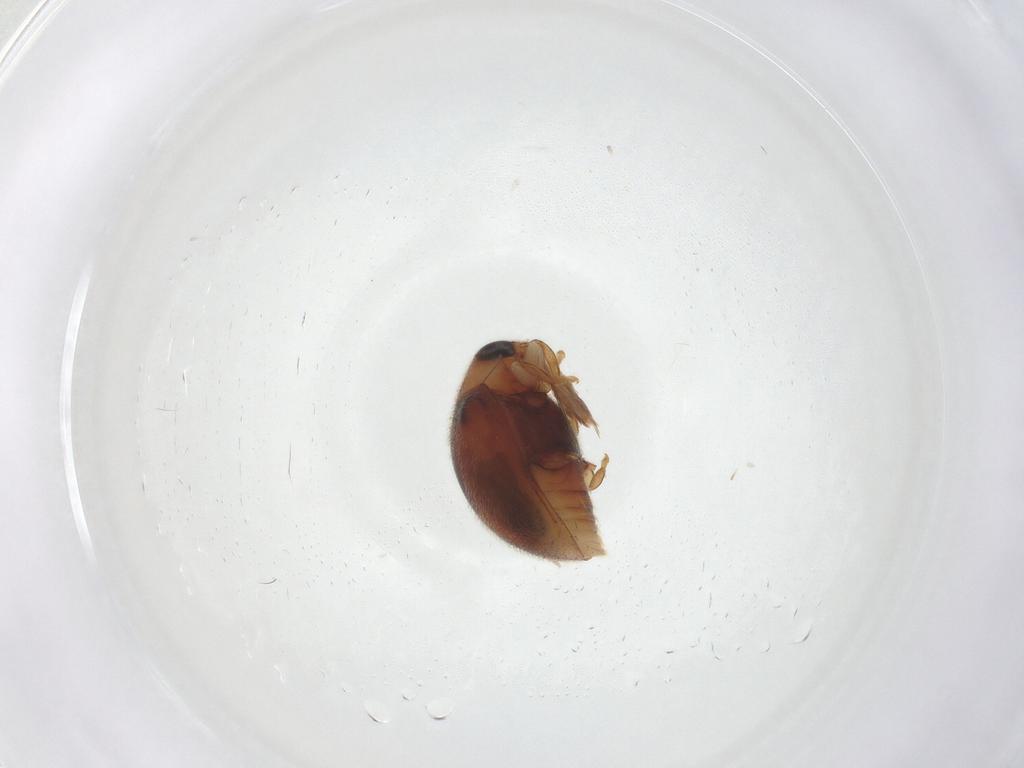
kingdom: Animalia
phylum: Arthropoda
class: Insecta
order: Coleoptera
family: Coccinellidae
